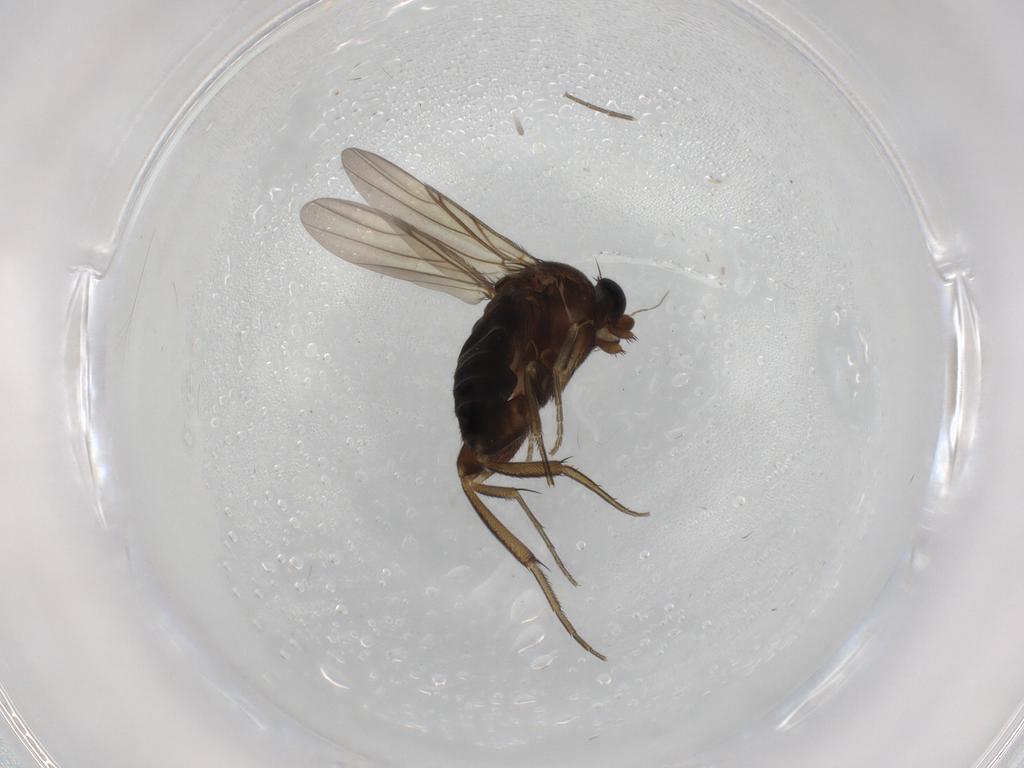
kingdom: Animalia
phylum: Arthropoda
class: Insecta
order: Diptera
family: Phoridae
